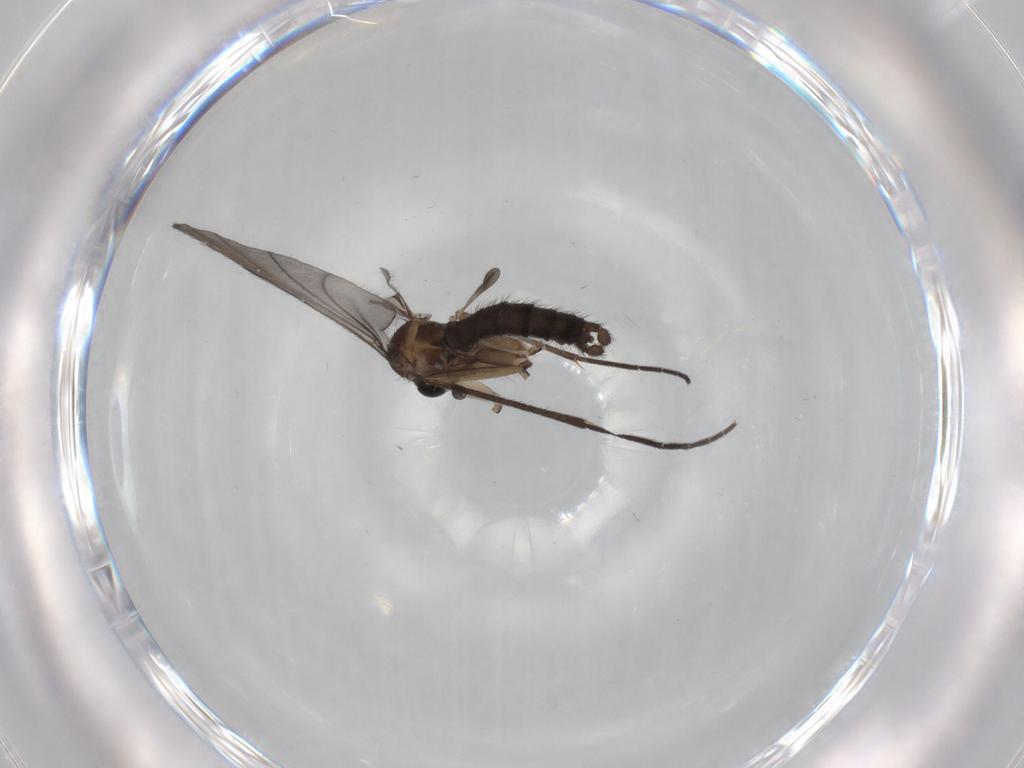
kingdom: Animalia
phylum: Arthropoda
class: Insecta
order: Diptera
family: Sciaridae
